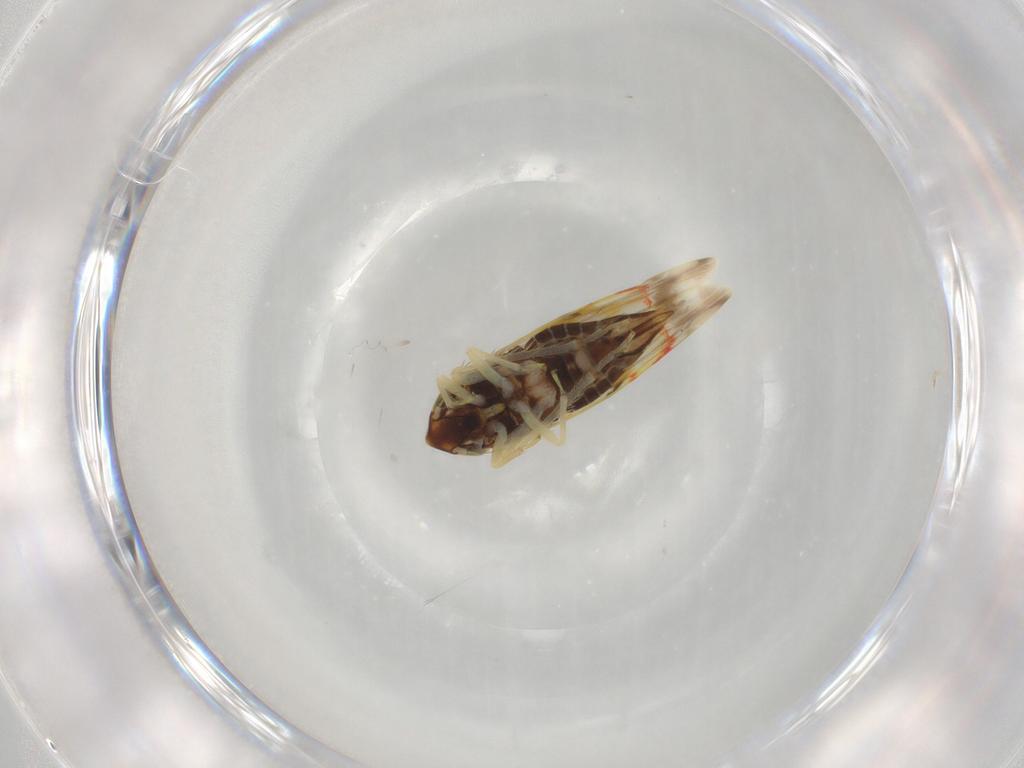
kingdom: Animalia
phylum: Arthropoda
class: Insecta
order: Hemiptera
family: Cicadellidae
